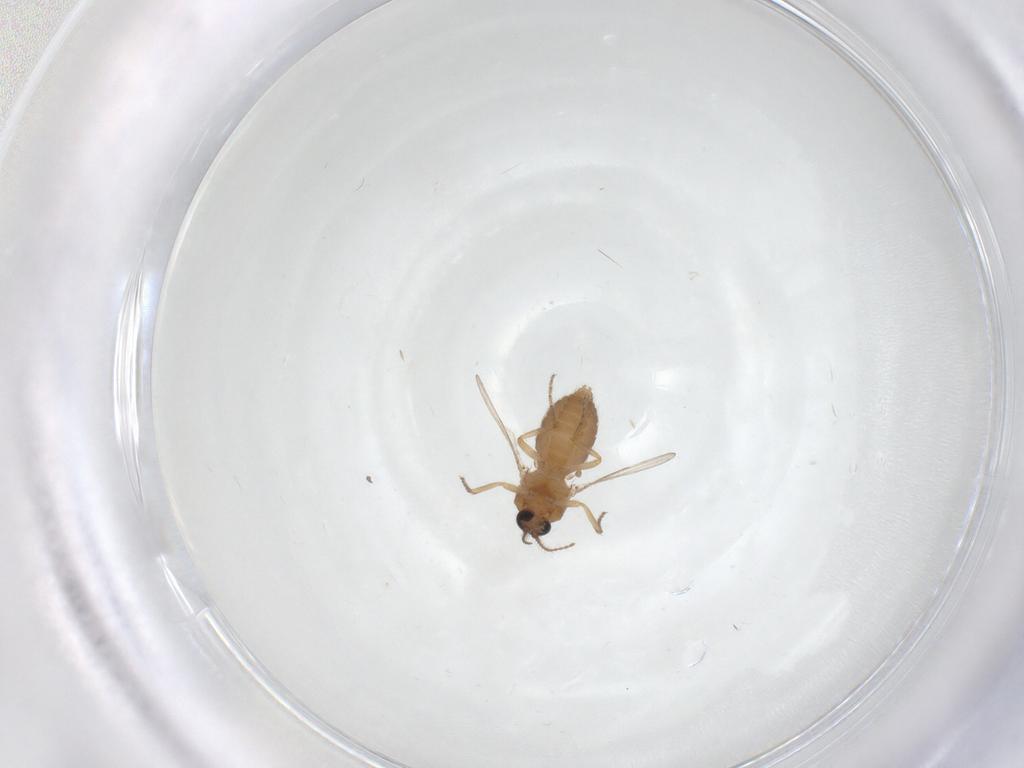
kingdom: Animalia
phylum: Arthropoda
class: Insecta
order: Diptera
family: Ceratopogonidae
